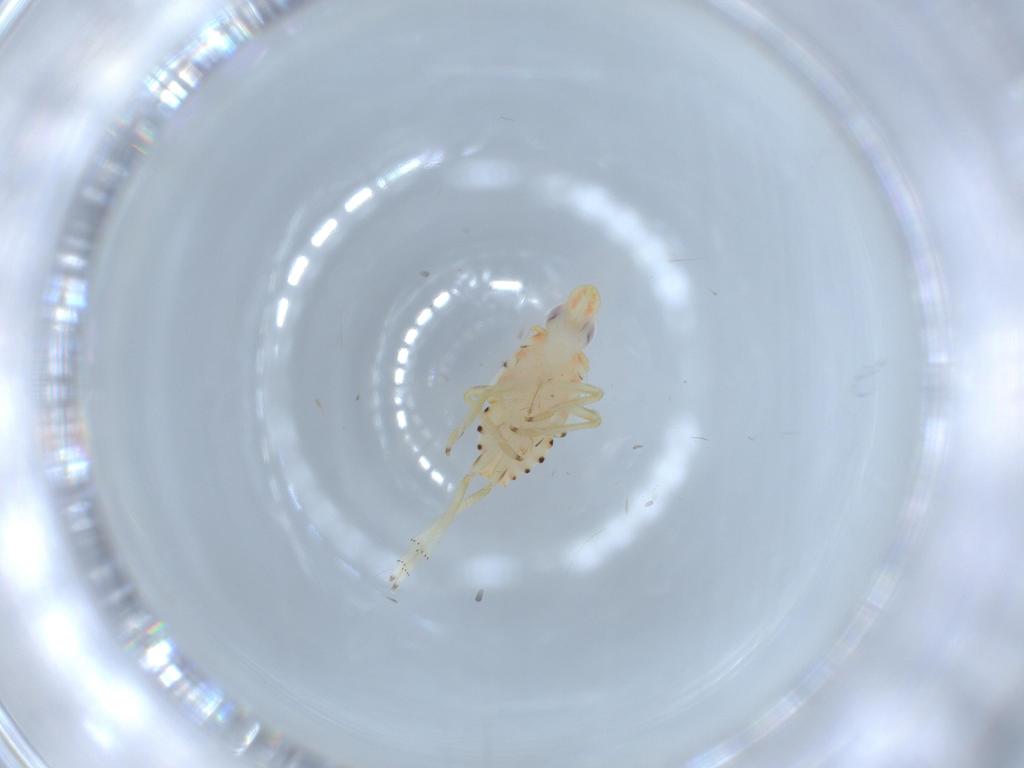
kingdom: Animalia
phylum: Arthropoda
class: Insecta
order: Hemiptera
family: Tropiduchidae
